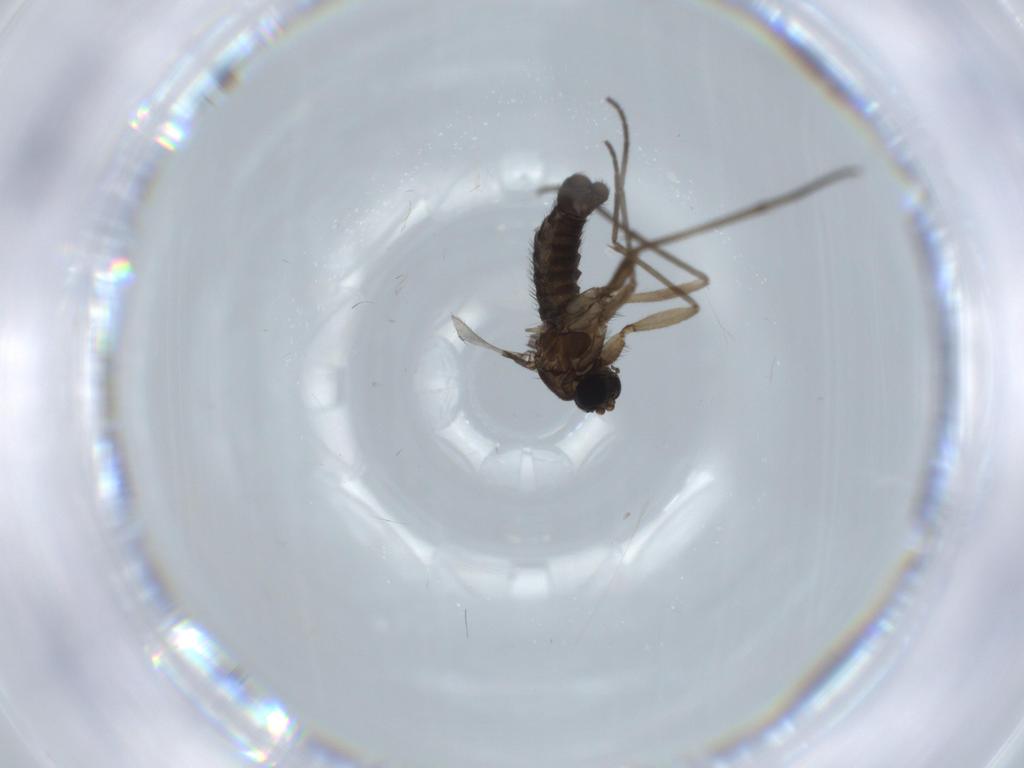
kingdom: Animalia
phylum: Arthropoda
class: Insecta
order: Diptera
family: Sciaridae
